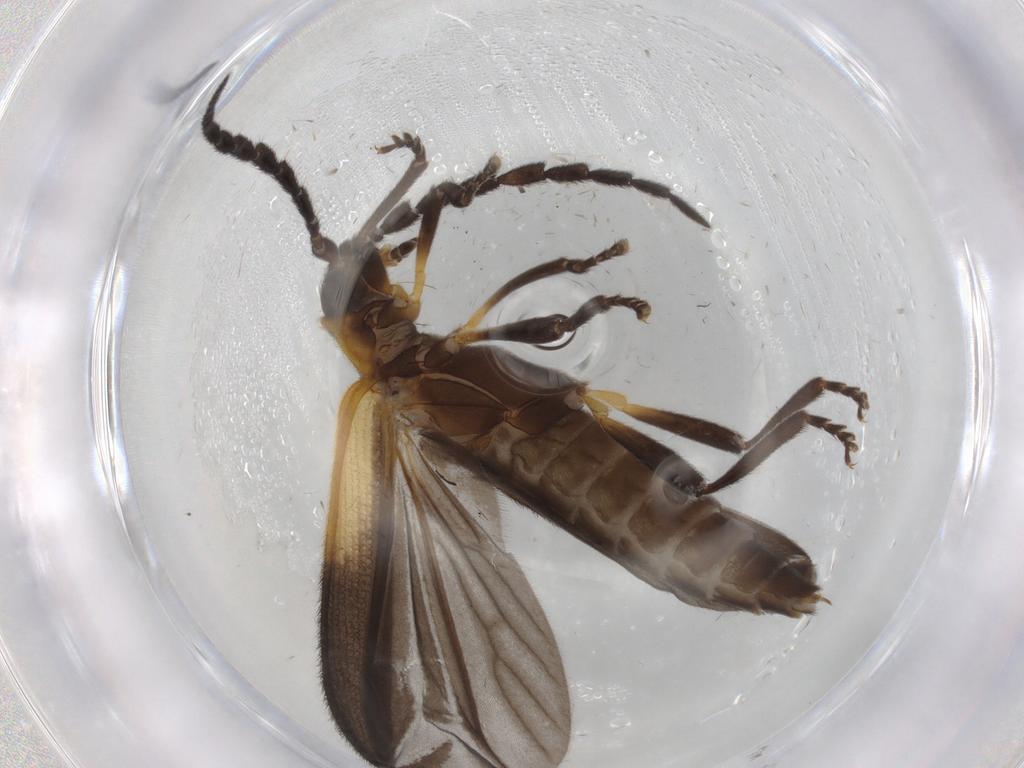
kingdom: Animalia
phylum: Arthropoda
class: Insecta
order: Coleoptera
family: Lycidae
